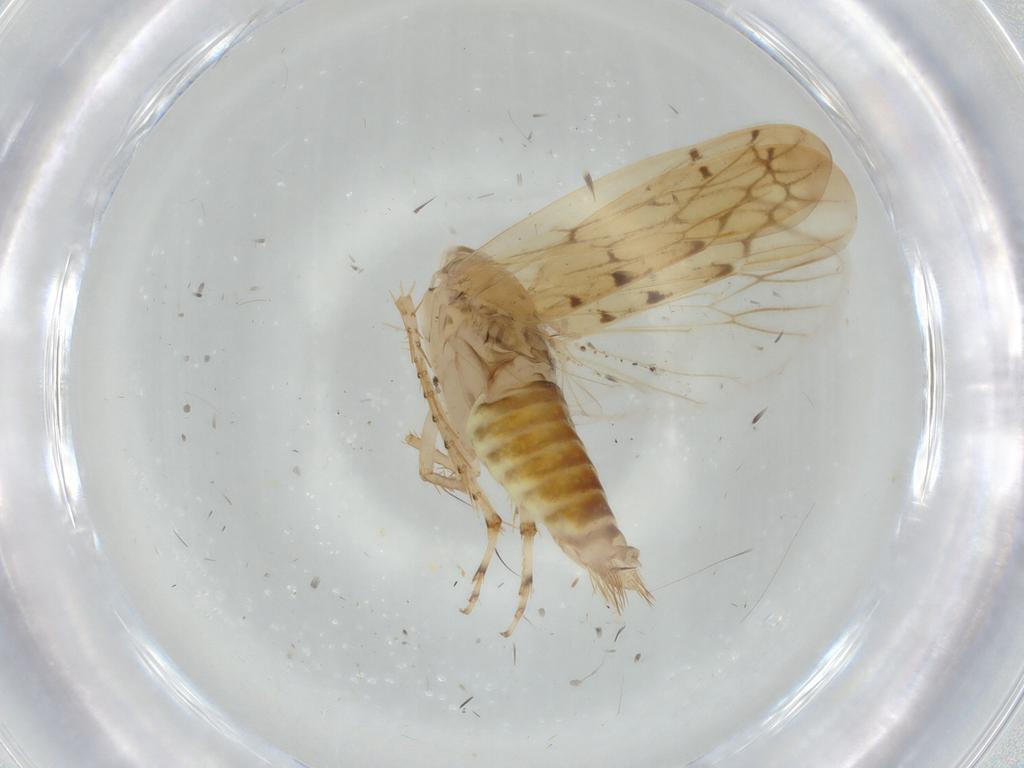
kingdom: Animalia
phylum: Arthropoda
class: Insecta
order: Hemiptera
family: Cicadellidae
